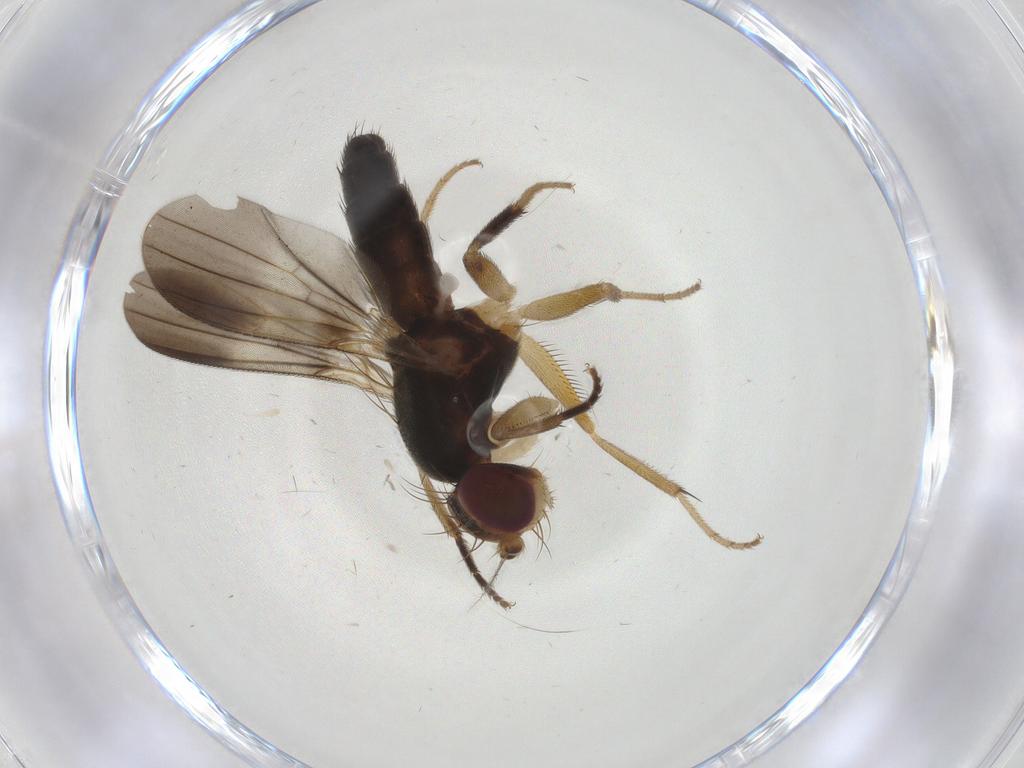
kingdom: Animalia
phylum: Arthropoda
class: Insecta
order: Diptera
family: Clusiidae
